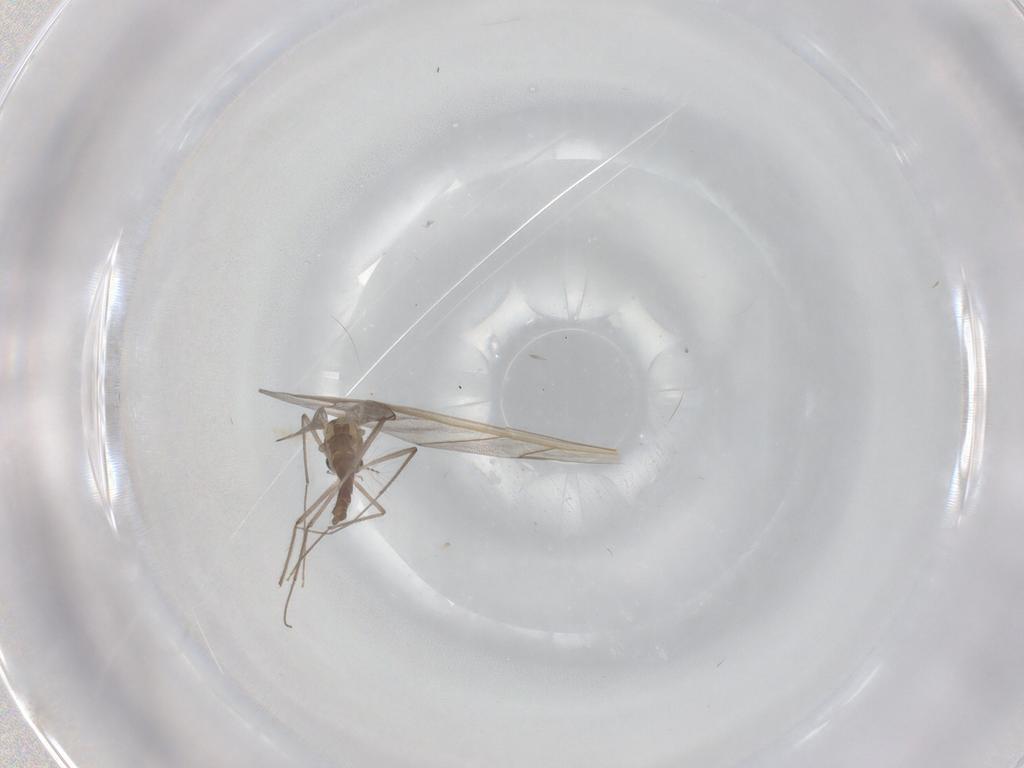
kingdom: Animalia
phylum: Arthropoda
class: Insecta
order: Diptera
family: Chironomidae
